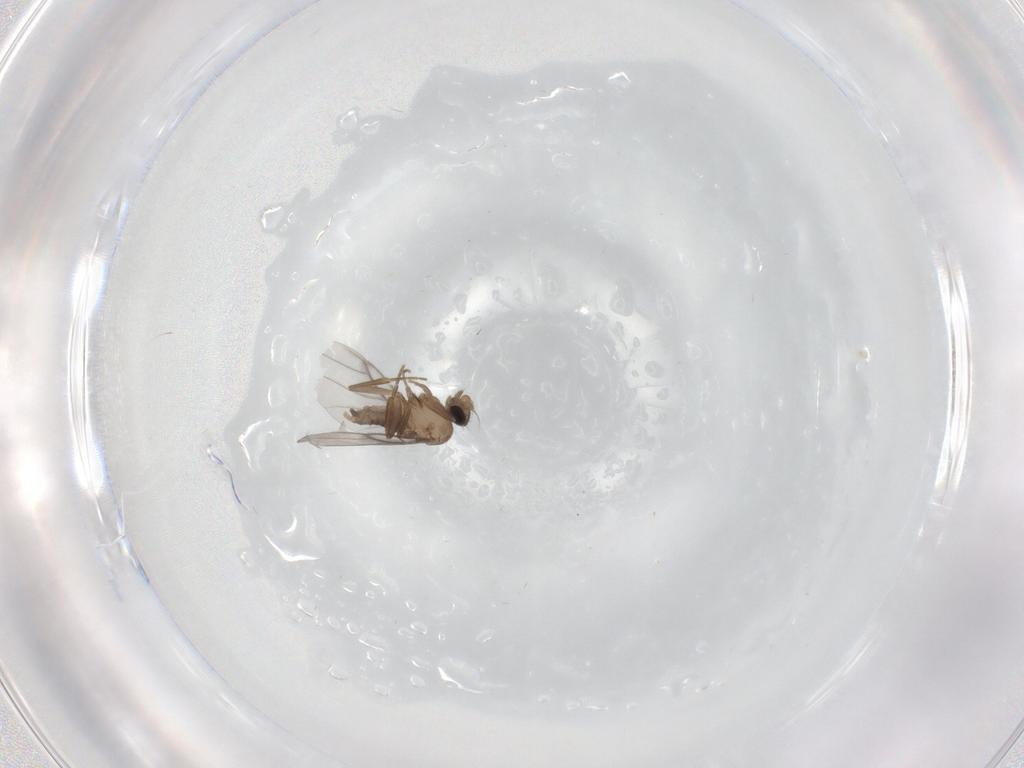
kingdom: Animalia
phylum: Arthropoda
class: Insecta
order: Diptera
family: Tipulidae
